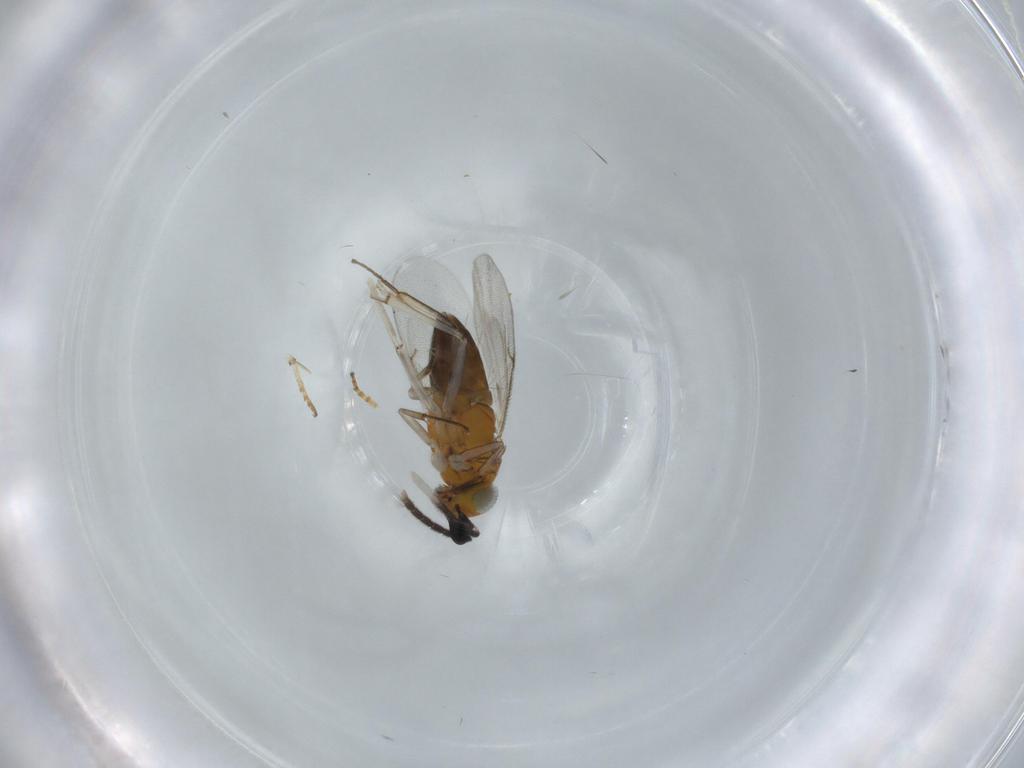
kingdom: Animalia
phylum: Arthropoda
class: Insecta
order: Hymenoptera
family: Encyrtidae
